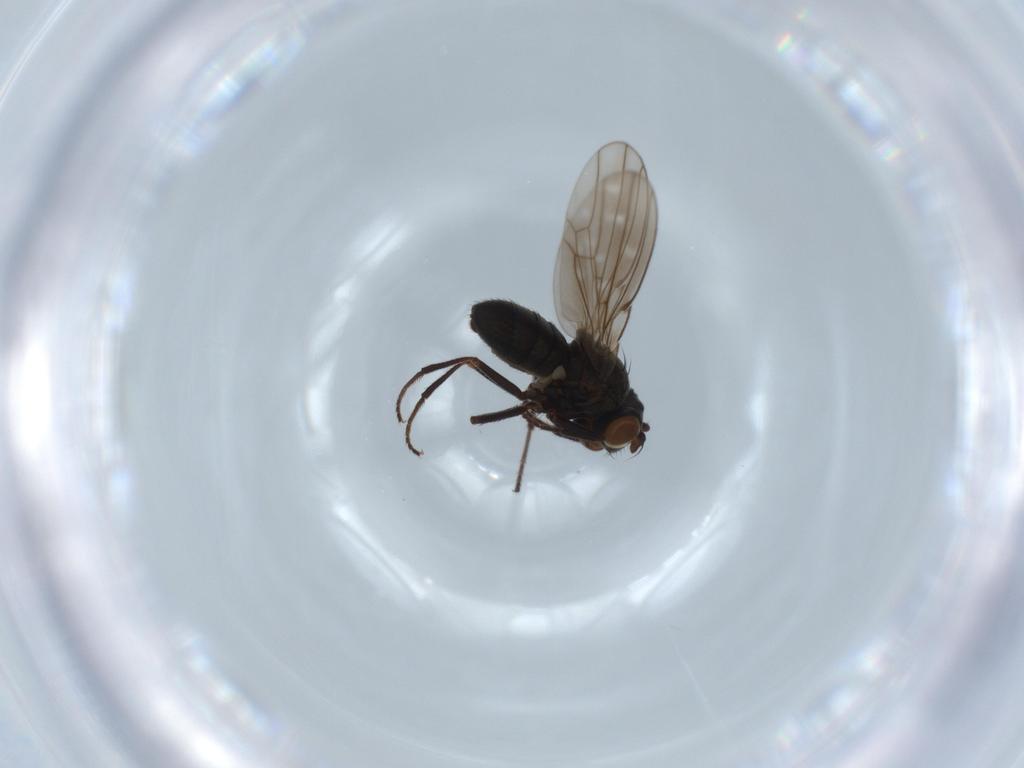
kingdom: Animalia
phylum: Arthropoda
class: Insecta
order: Diptera
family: Ephydridae
